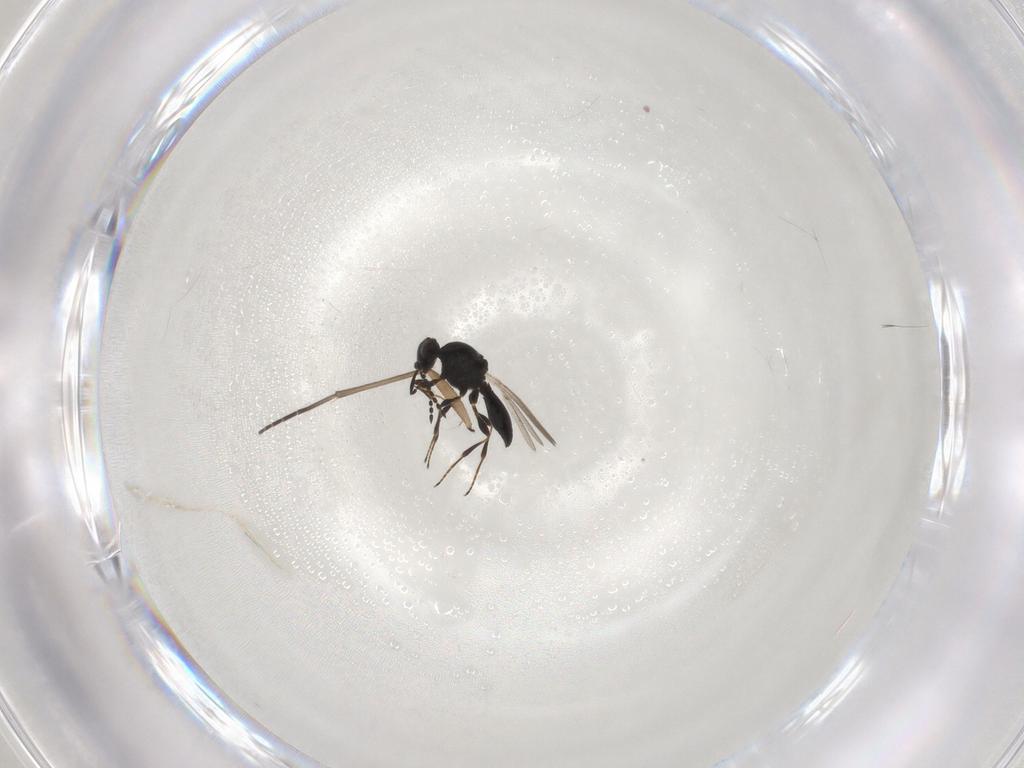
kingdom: Animalia
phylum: Arthropoda
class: Insecta
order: Hymenoptera
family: Platygastridae
